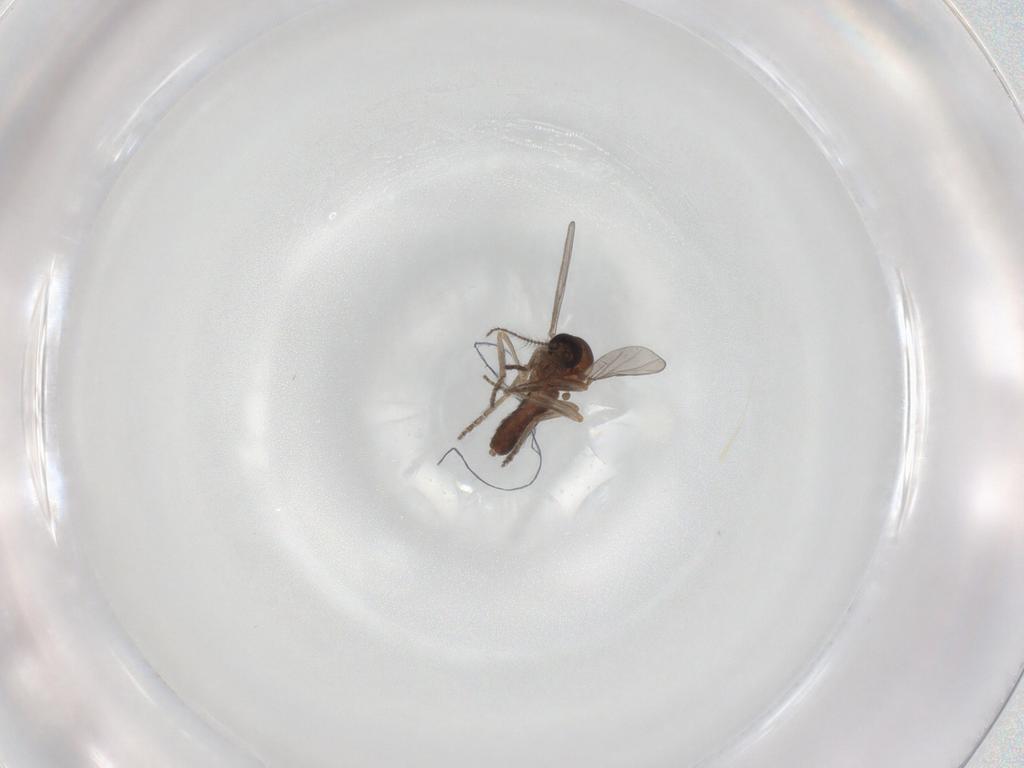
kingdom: Animalia
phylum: Arthropoda
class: Insecta
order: Diptera
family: Ceratopogonidae
